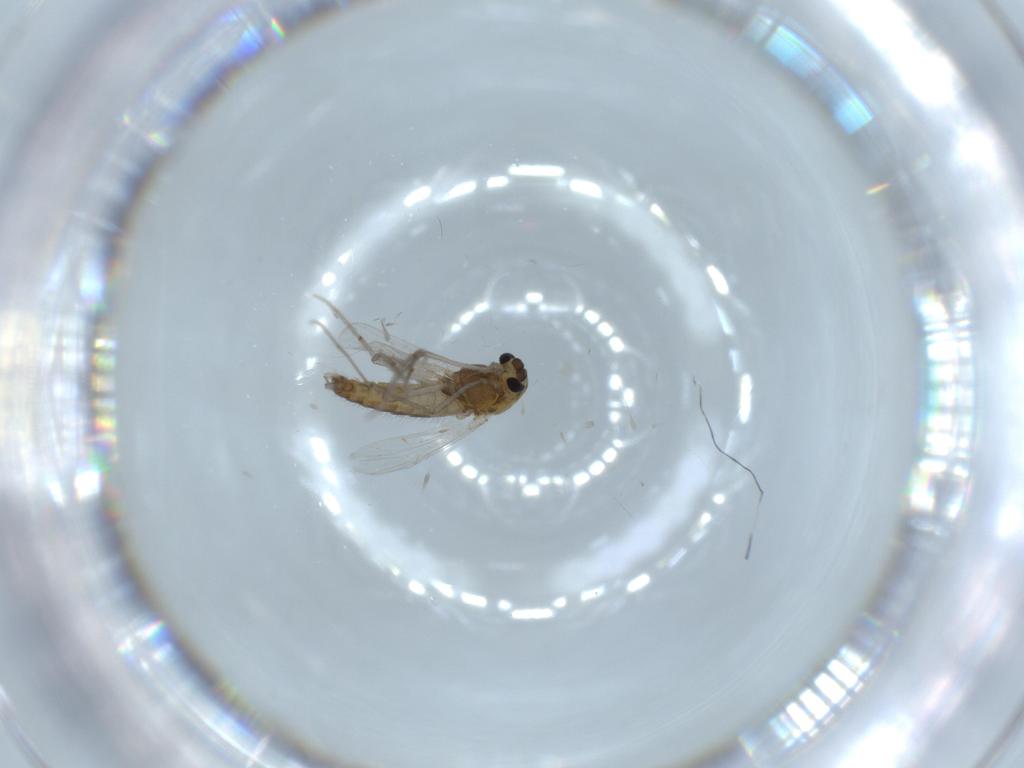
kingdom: Animalia
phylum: Arthropoda
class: Insecta
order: Diptera
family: Chironomidae
